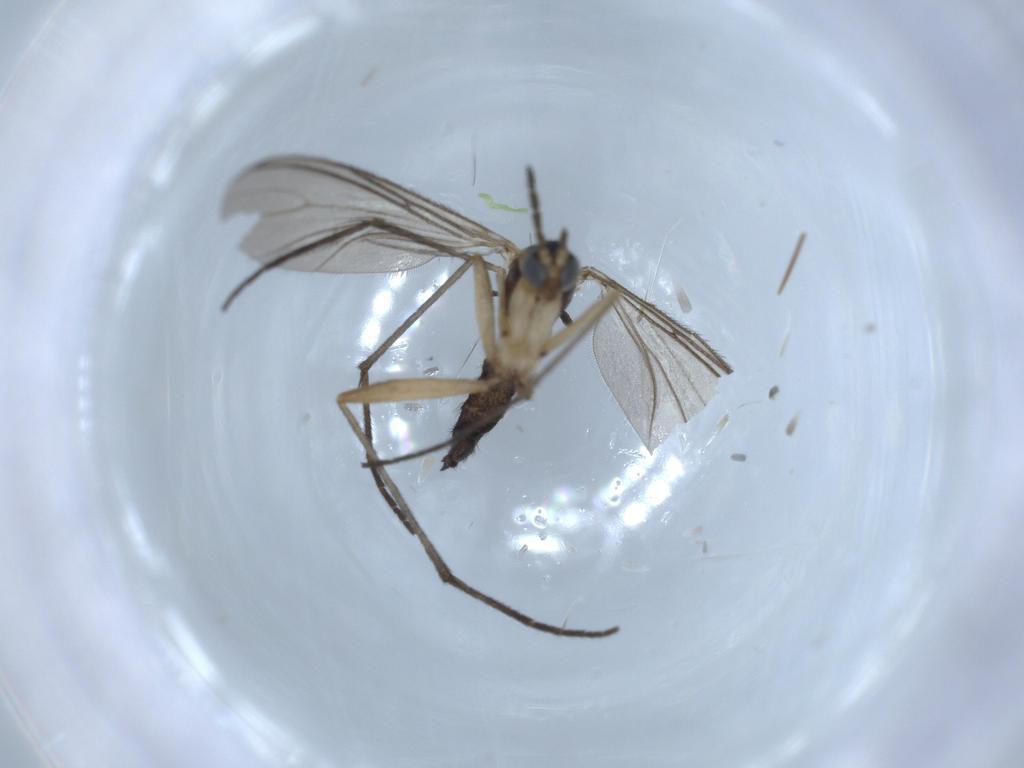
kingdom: Animalia
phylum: Arthropoda
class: Insecta
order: Diptera
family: Sciaridae
